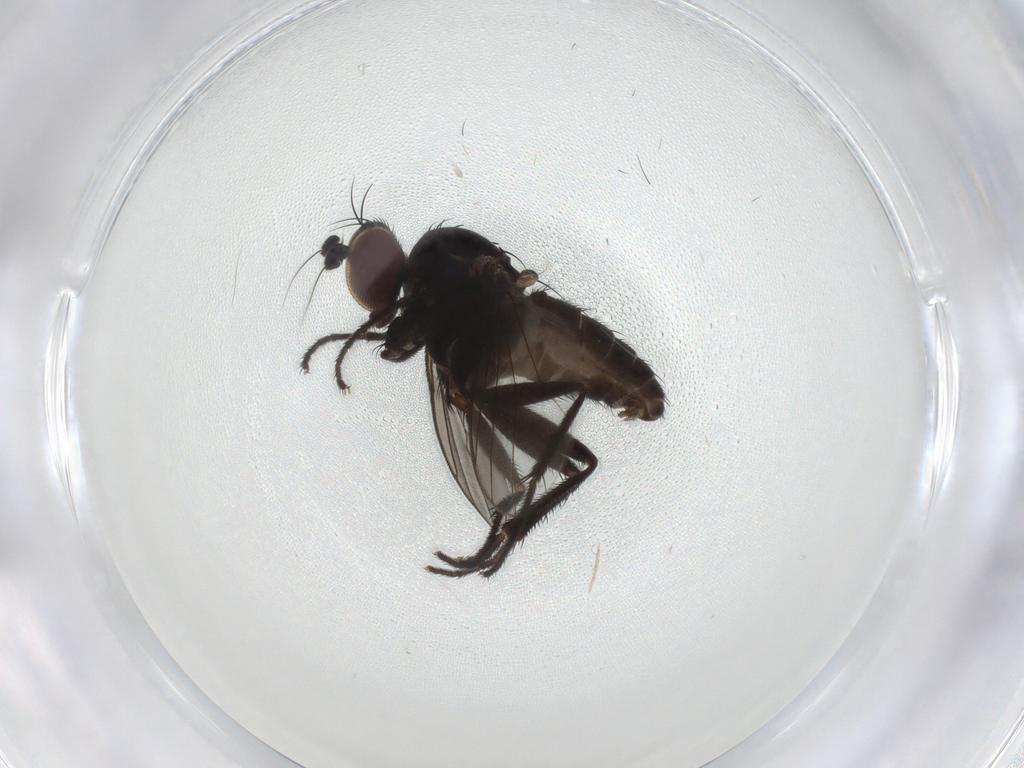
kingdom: Animalia
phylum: Arthropoda
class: Insecta
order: Diptera
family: Dolichopodidae
